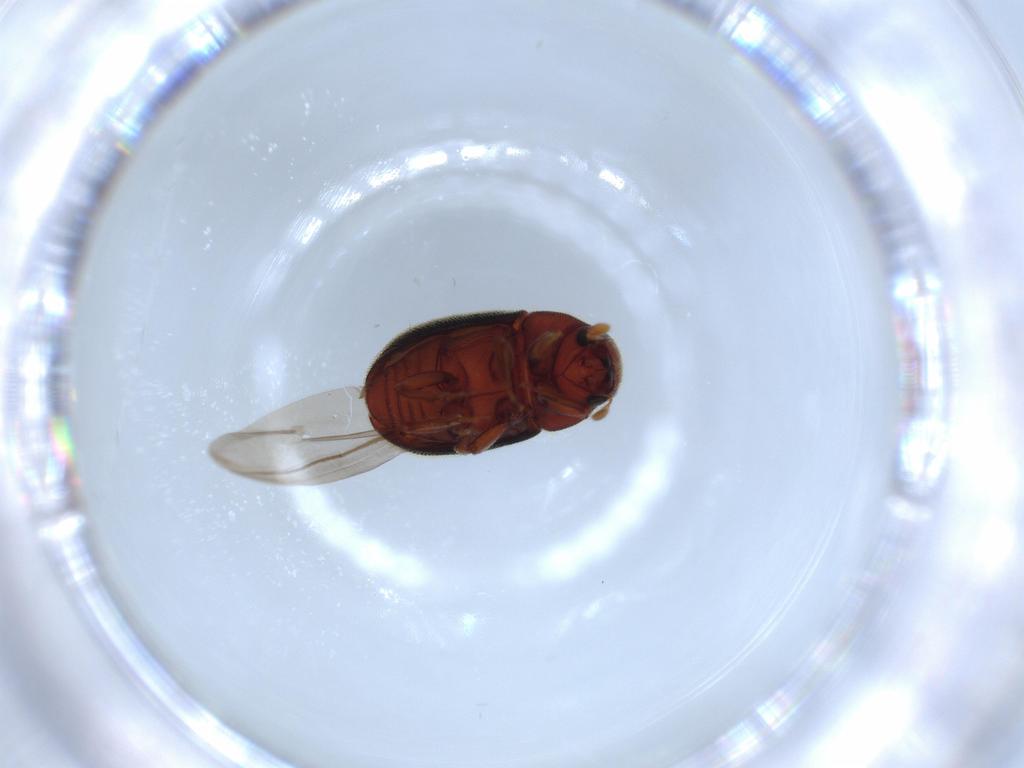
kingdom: Animalia
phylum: Arthropoda
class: Insecta
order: Coleoptera
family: Curculionidae
